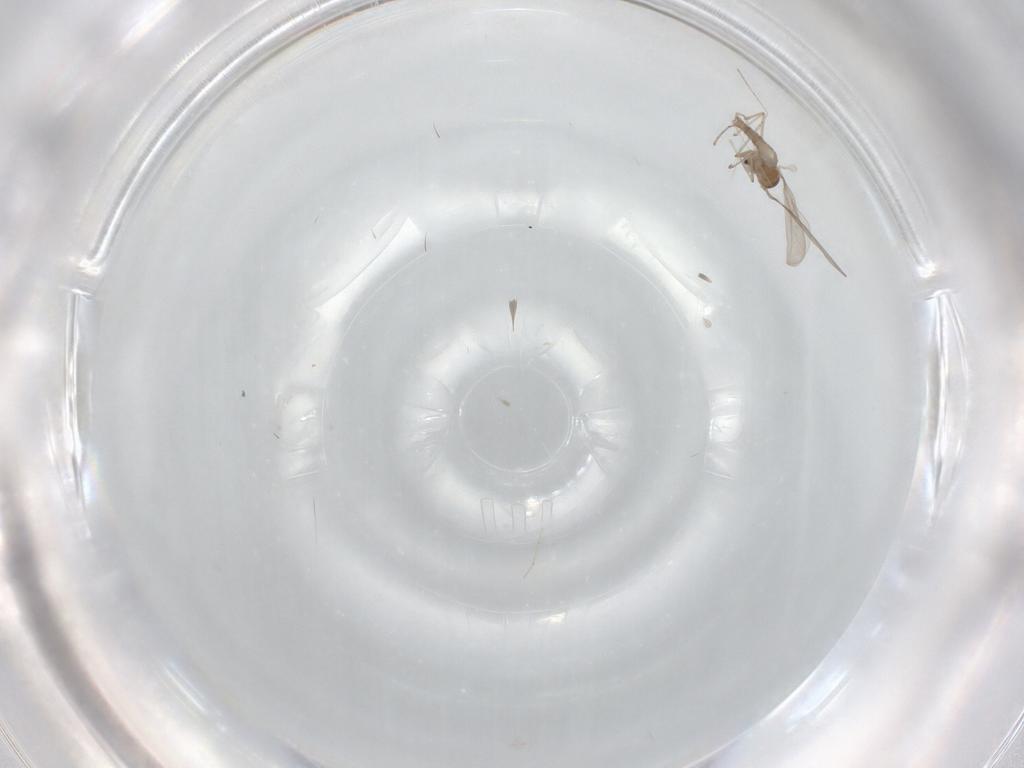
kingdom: Animalia
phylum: Arthropoda
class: Insecta
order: Diptera
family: Chironomidae
